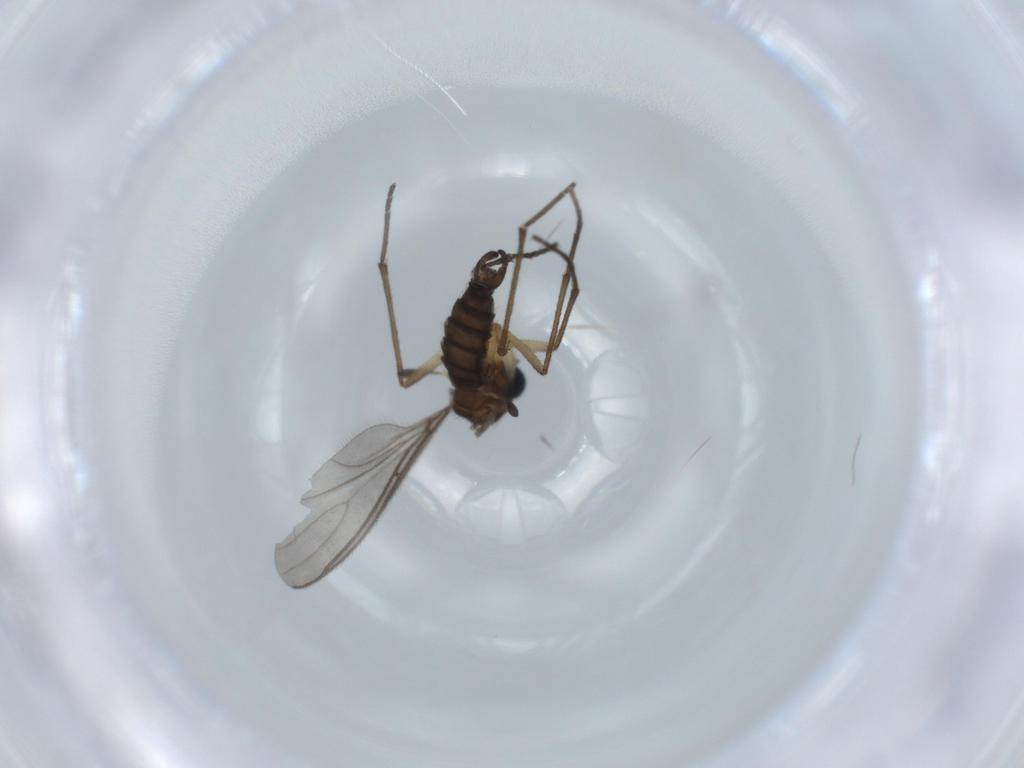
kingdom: Animalia
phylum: Arthropoda
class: Insecta
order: Diptera
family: Sciaridae
